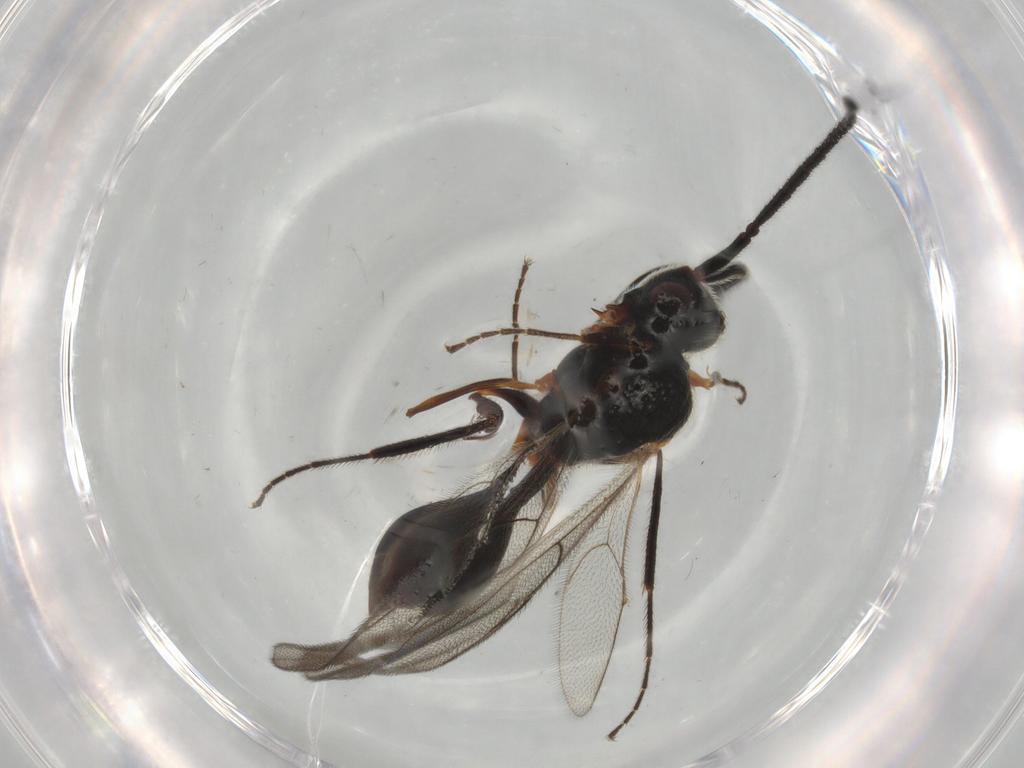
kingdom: Animalia
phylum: Arthropoda
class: Insecta
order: Hymenoptera
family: Diapriidae
